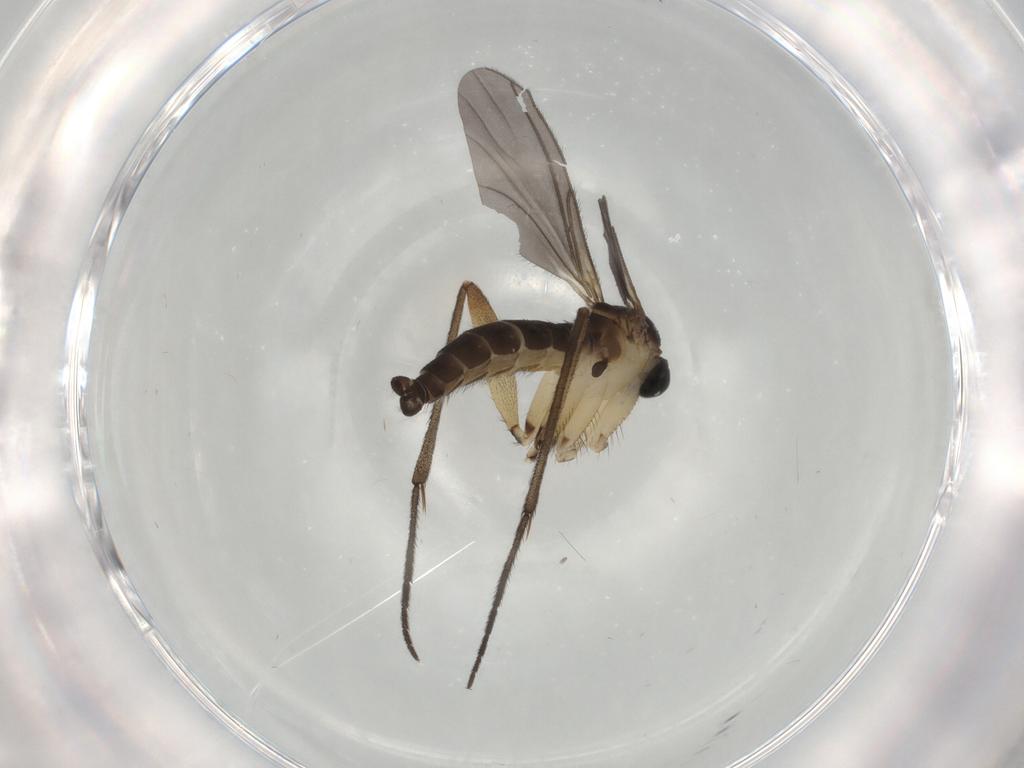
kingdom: Animalia
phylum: Arthropoda
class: Insecta
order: Diptera
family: Sciaridae
